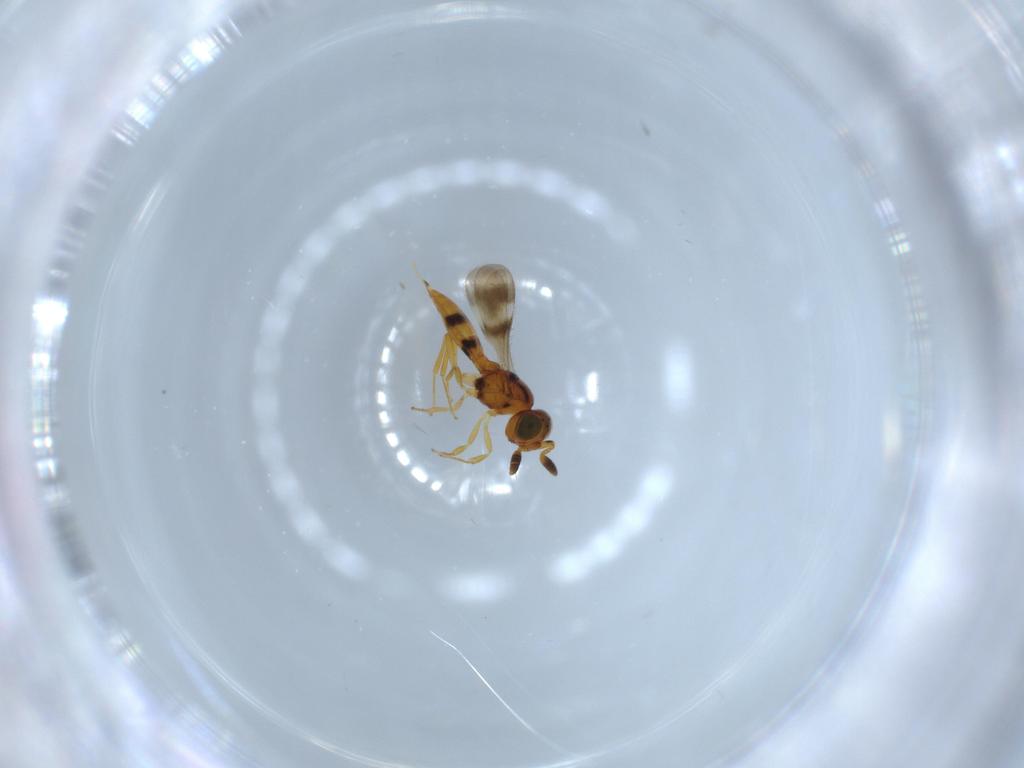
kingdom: Animalia
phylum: Arthropoda
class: Insecta
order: Hymenoptera
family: Scelionidae
